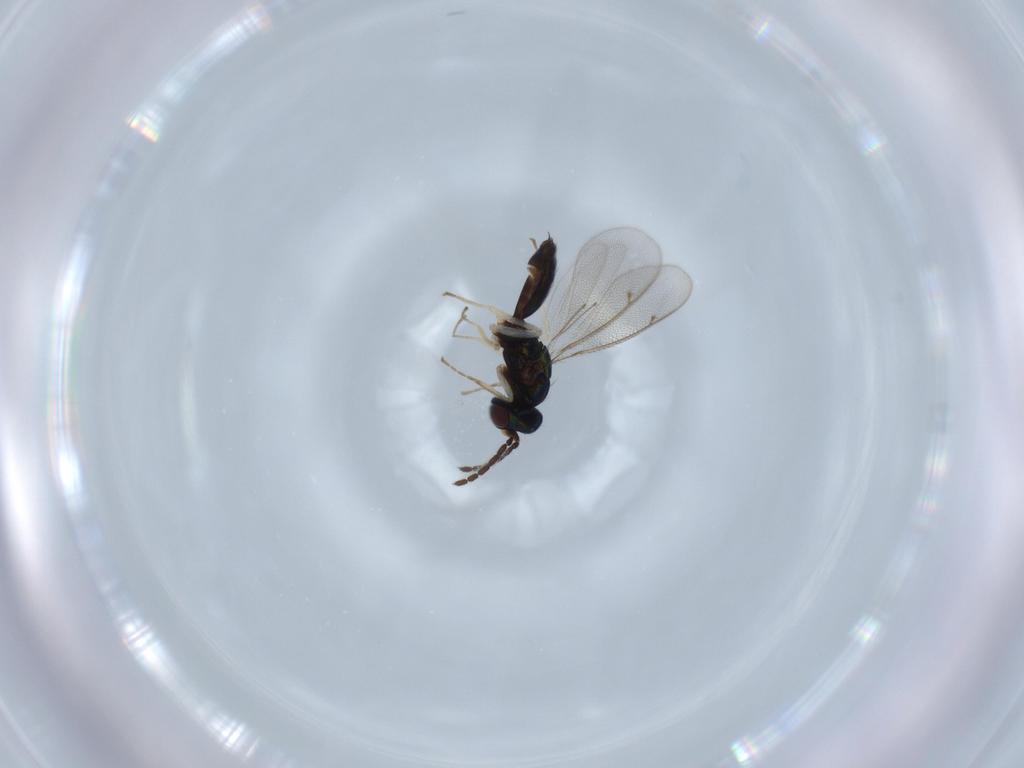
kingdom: Animalia
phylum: Arthropoda
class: Insecta
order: Hymenoptera
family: Eulophidae
